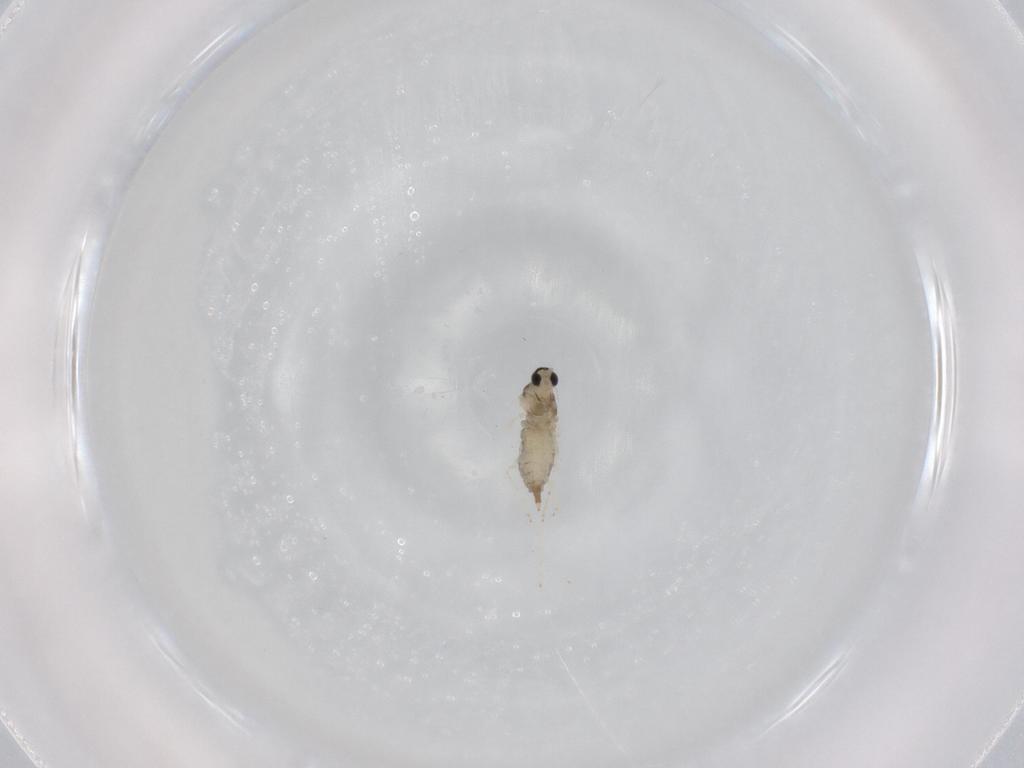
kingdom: Animalia
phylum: Arthropoda
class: Insecta
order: Diptera
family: Cecidomyiidae
